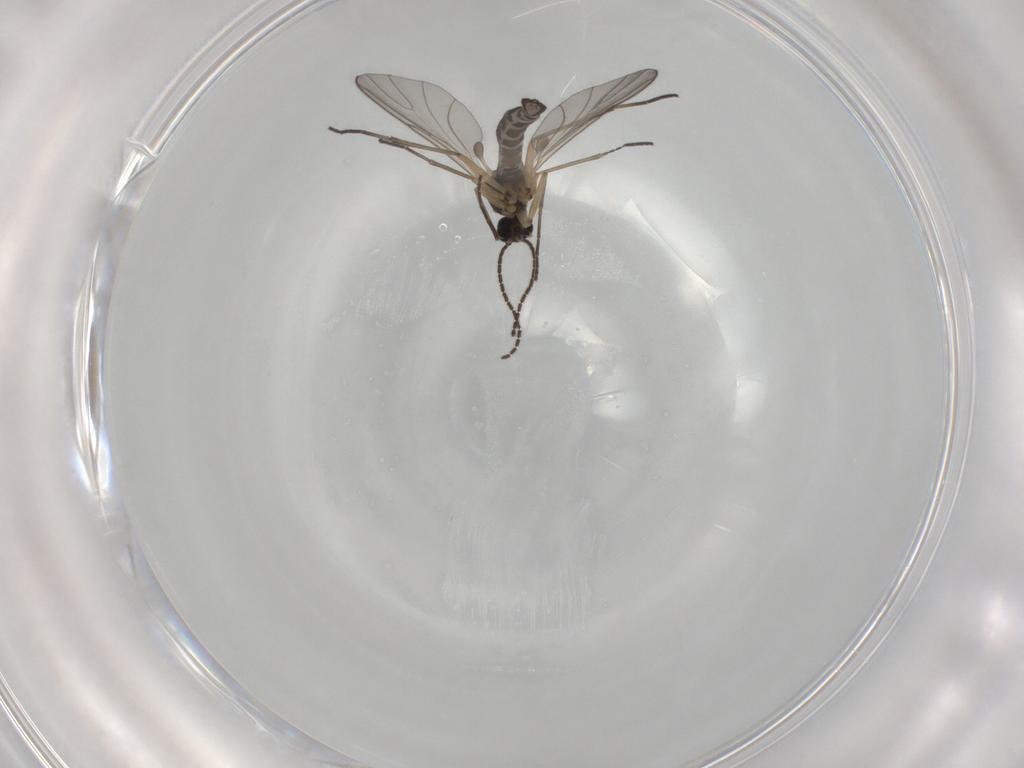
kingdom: Animalia
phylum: Arthropoda
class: Insecta
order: Diptera
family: Sciaridae
